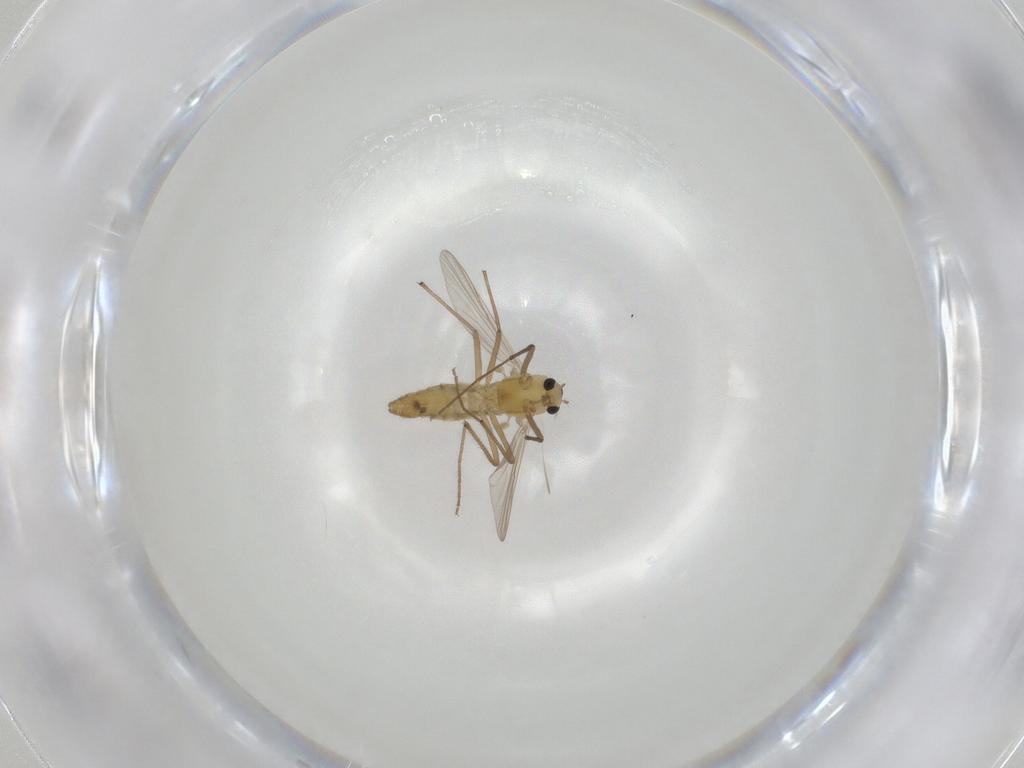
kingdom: Animalia
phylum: Arthropoda
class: Insecta
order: Diptera
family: Chironomidae
